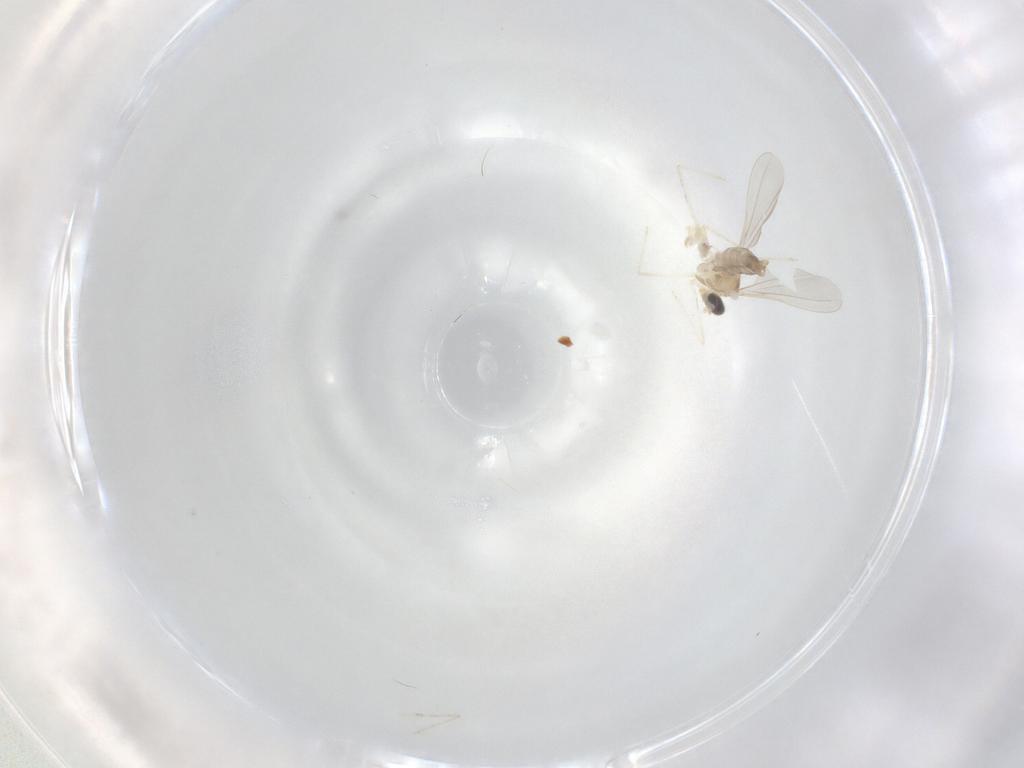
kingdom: Animalia
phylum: Arthropoda
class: Insecta
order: Diptera
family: Cecidomyiidae
